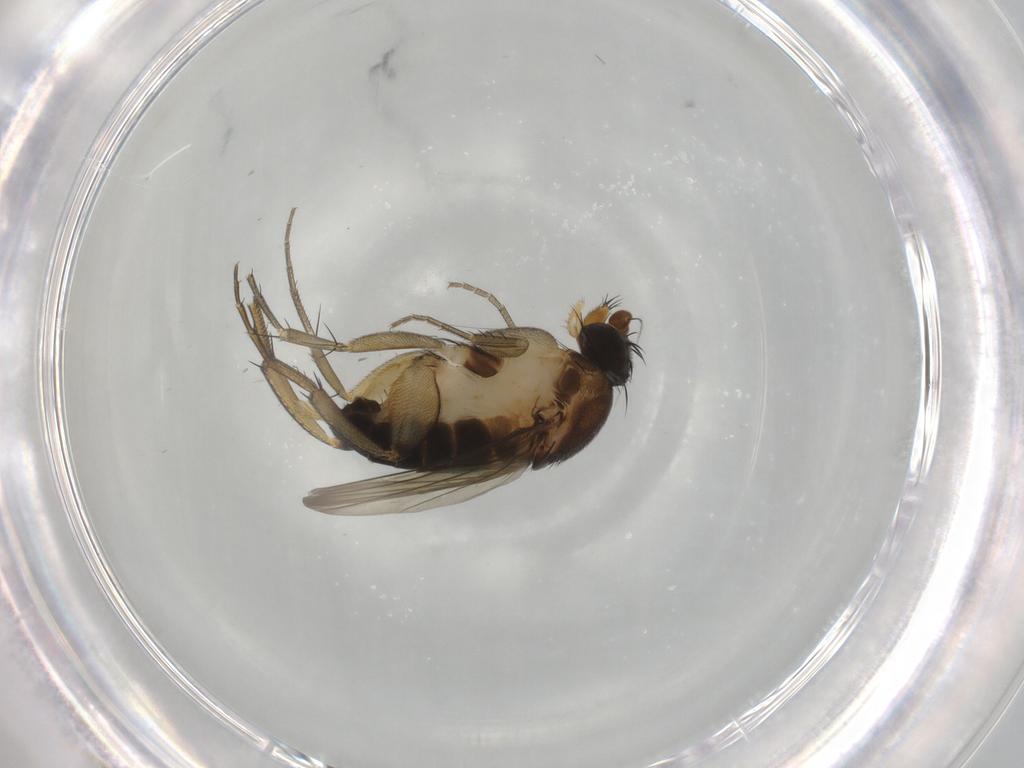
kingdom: Animalia
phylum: Arthropoda
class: Insecta
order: Diptera
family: Phoridae
